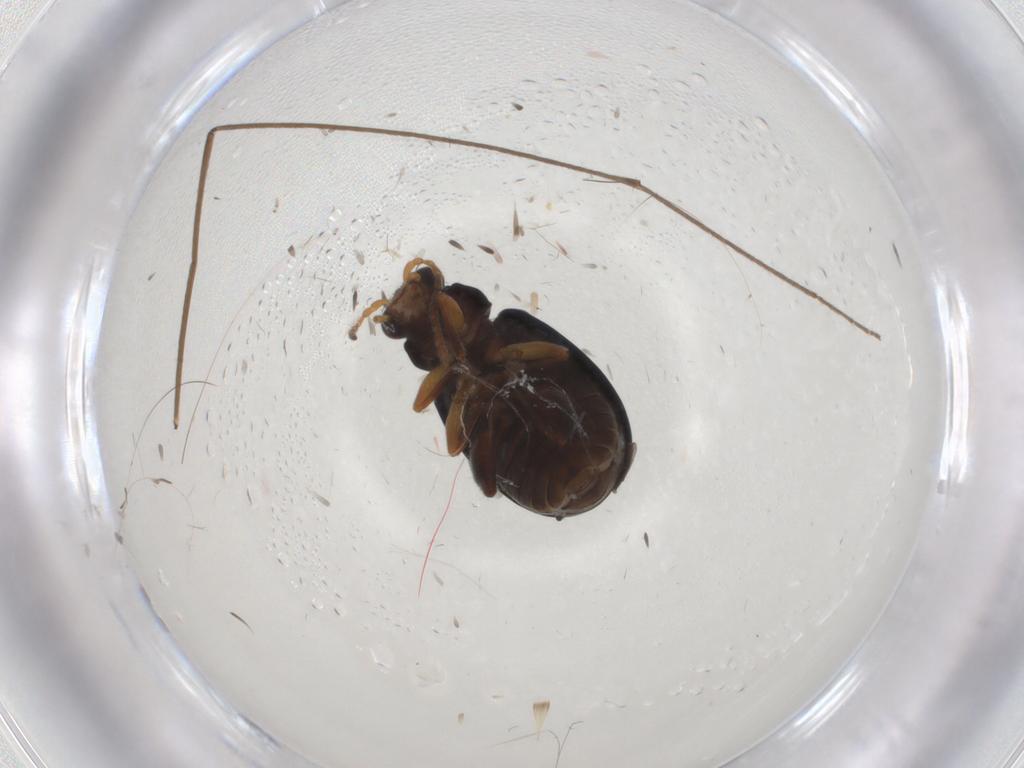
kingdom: Animalia
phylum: Arthropoda
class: Insecta
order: Coleoptera
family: Chrysomelidae
